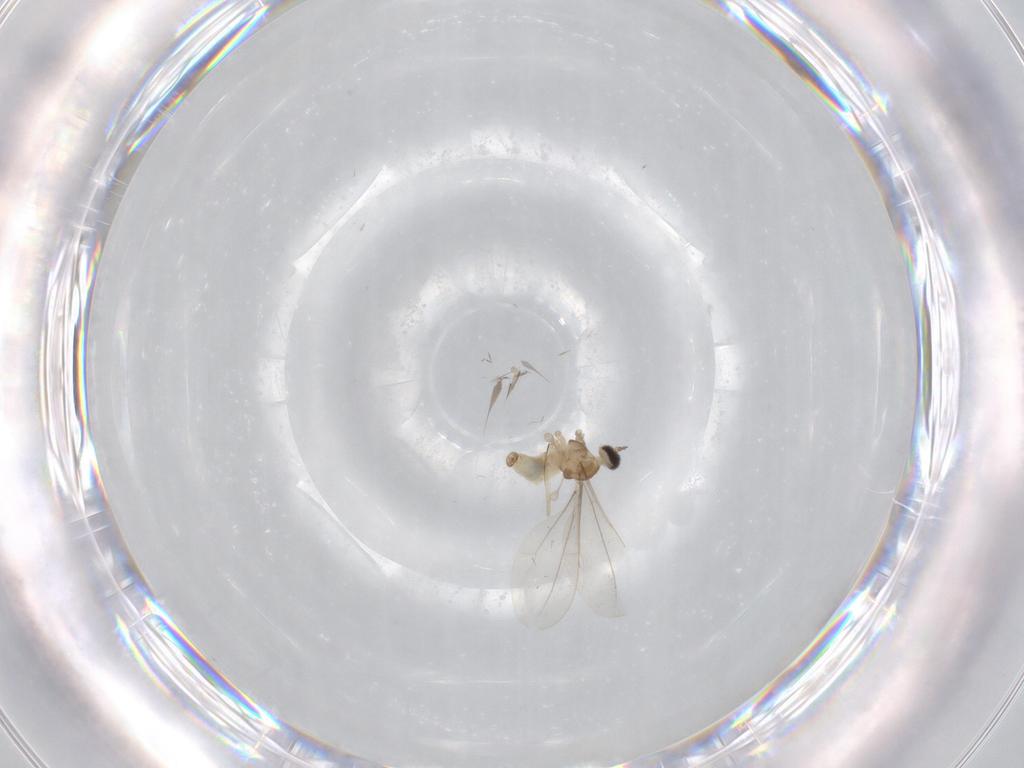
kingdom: Animalia
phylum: Arthropoda
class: Insecta
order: Diptera
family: Cecidomyiidae
